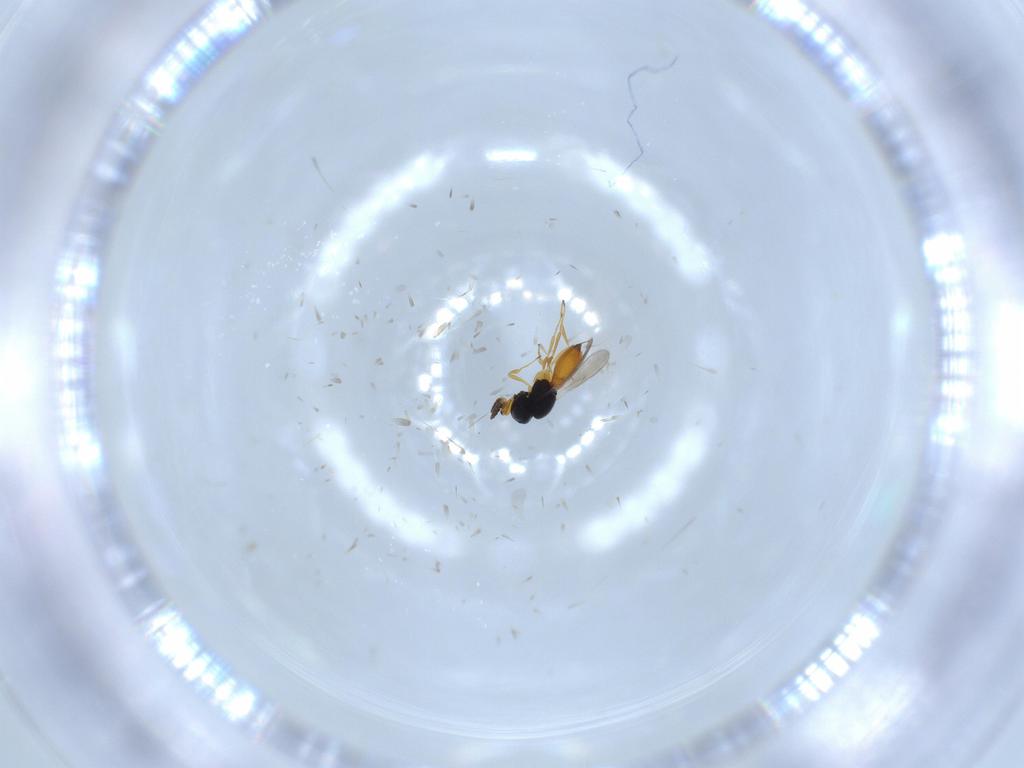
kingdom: Animalia
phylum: Arthropoda
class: Insecta
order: Hymenoptera
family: Scelionidae
